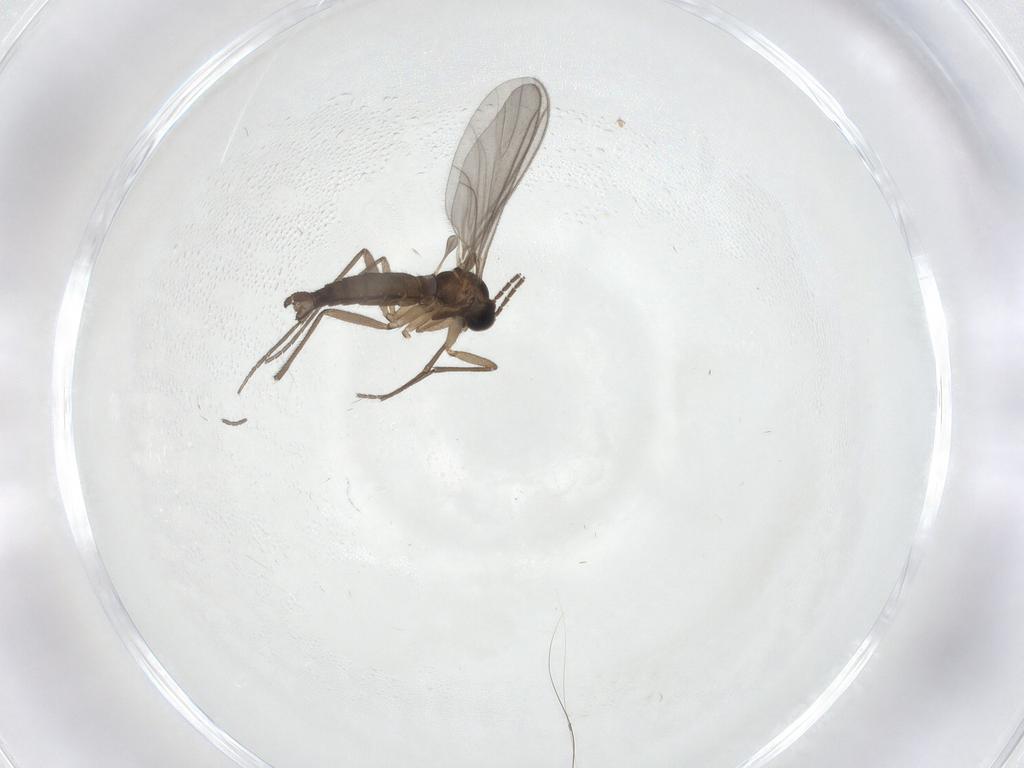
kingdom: Animalia
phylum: Arthropoda
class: Insecta
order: Diptera
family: Sciaridae
